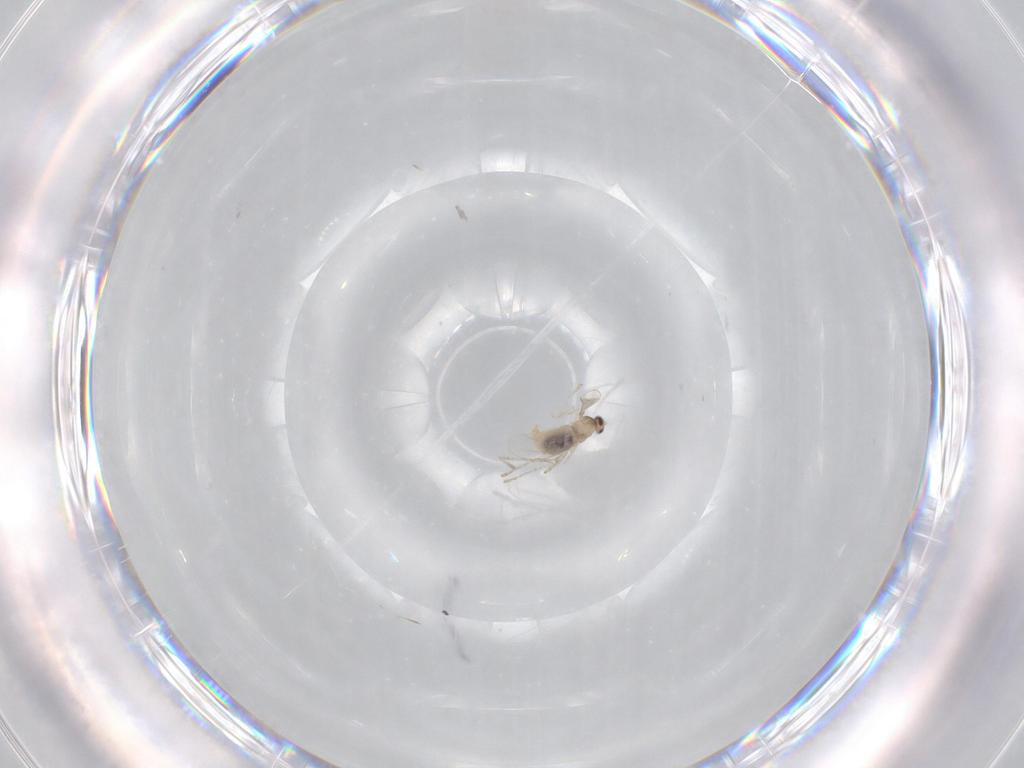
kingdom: Animalia
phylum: Arthropoda
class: Insecta
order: Diptera
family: Cecidomyiidae
